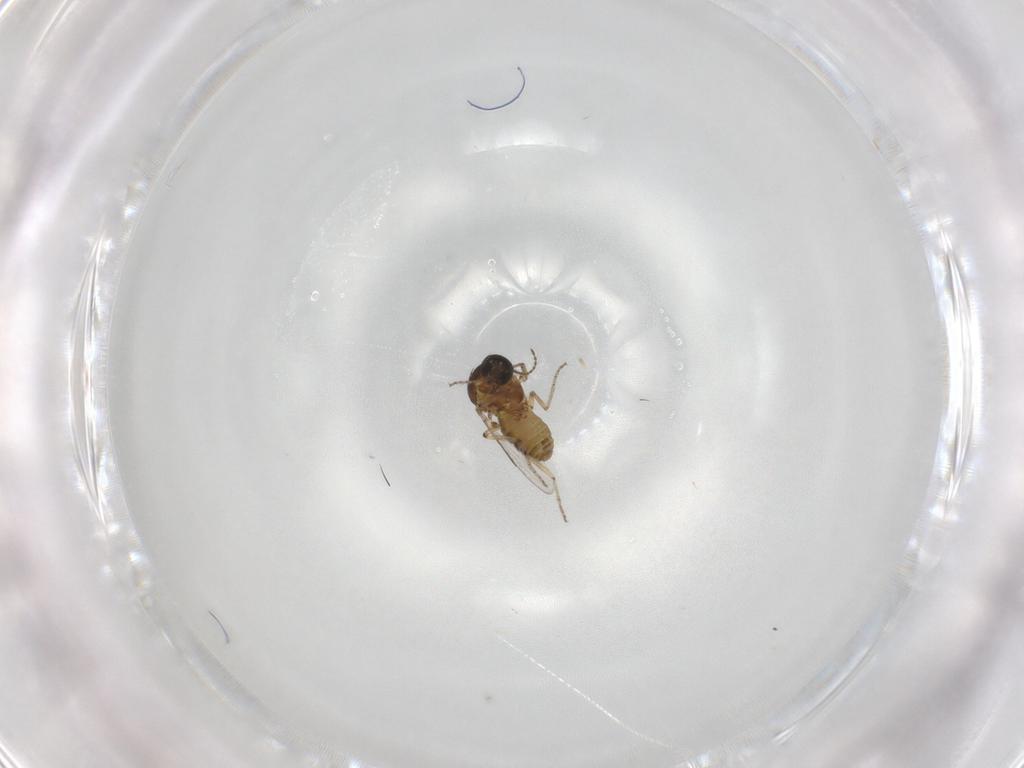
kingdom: Animalia
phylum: Arthropoda
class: Insecta
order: Diptera
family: Ceratopogonidae
